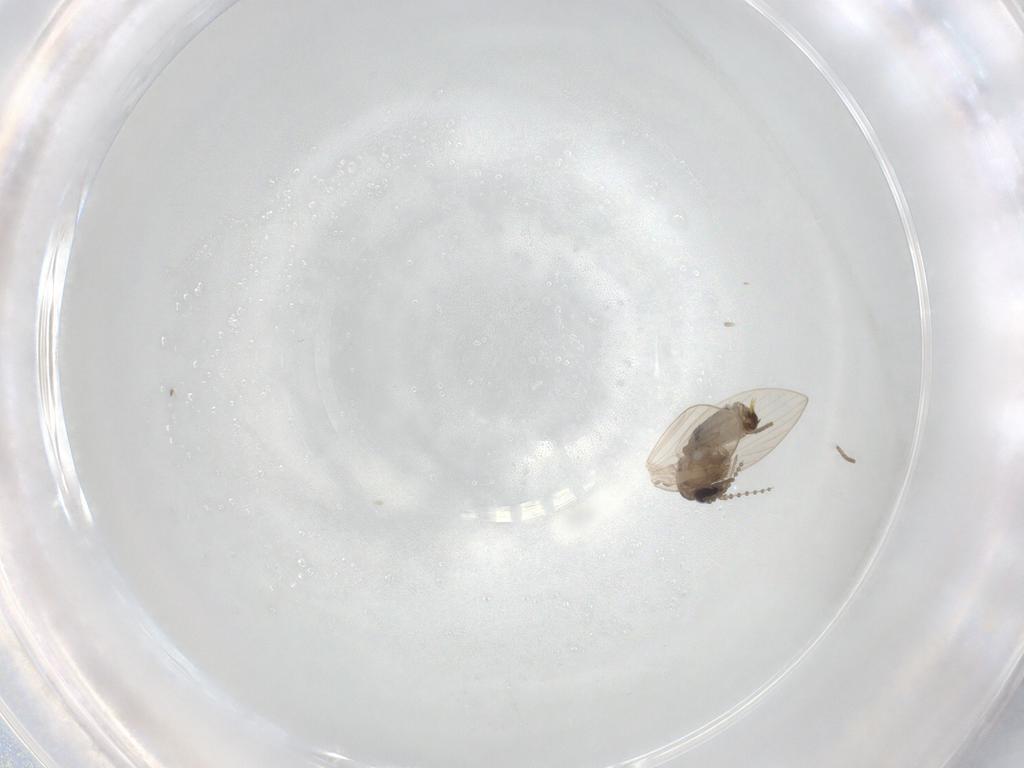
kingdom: Animalia
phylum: Arthropoda
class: Insecta
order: Diptera
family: Psychodidae
